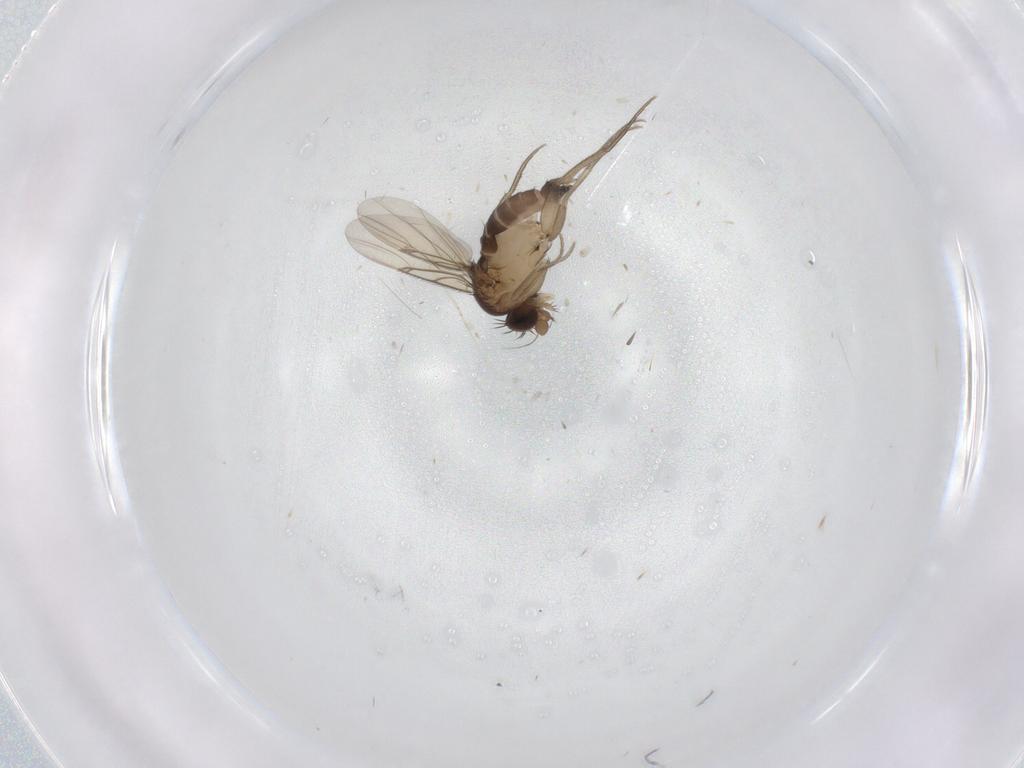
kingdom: Animalia
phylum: Arthropoda
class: Insecta
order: Diptera
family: Phoridae
